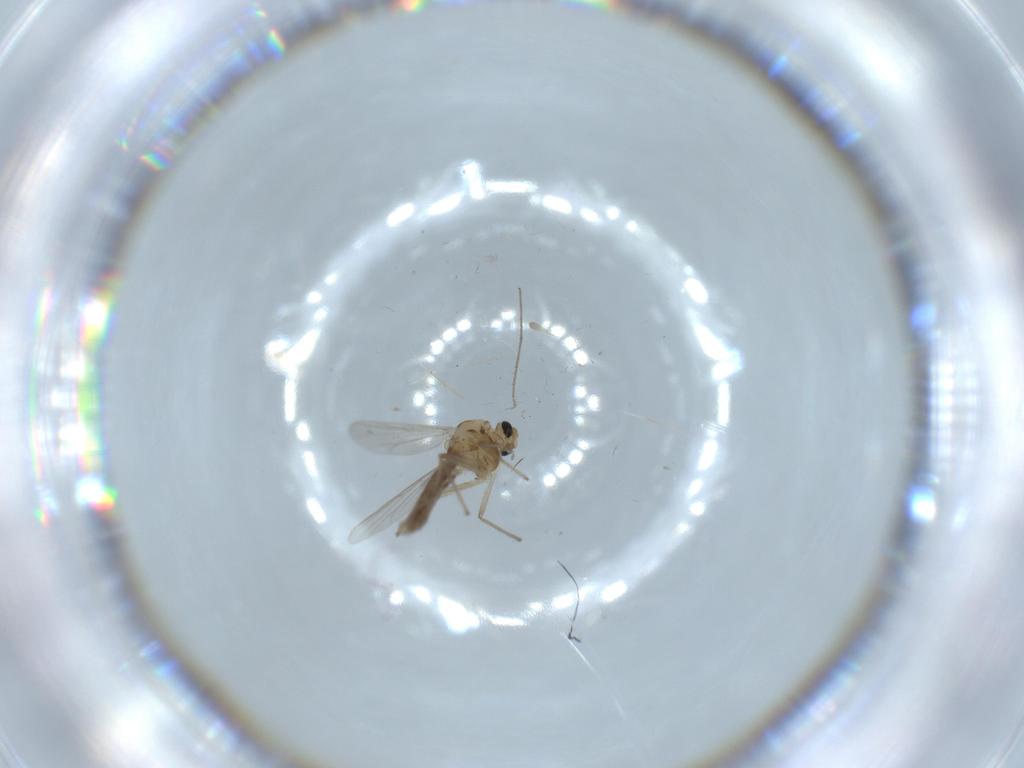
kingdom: Animalia
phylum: Arthropoda
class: Insecta
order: Diptera
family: Chironomidae
